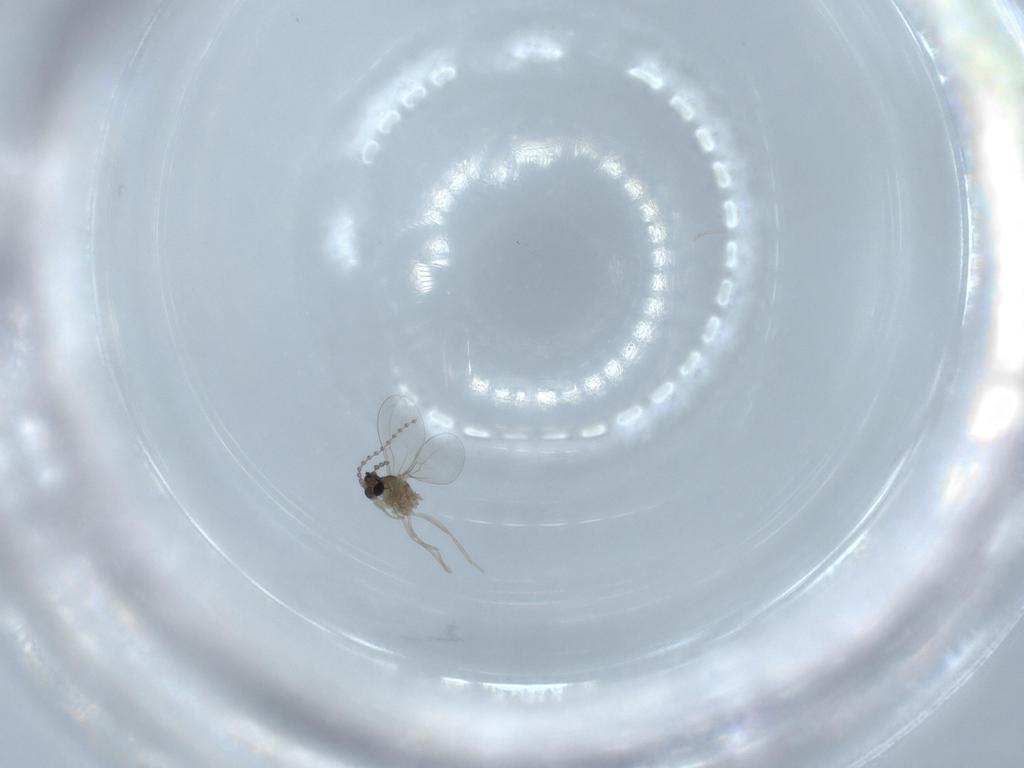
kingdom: Animalia
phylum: Arthropoda
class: Insecta
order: Diptera
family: Cecidomyiidae
